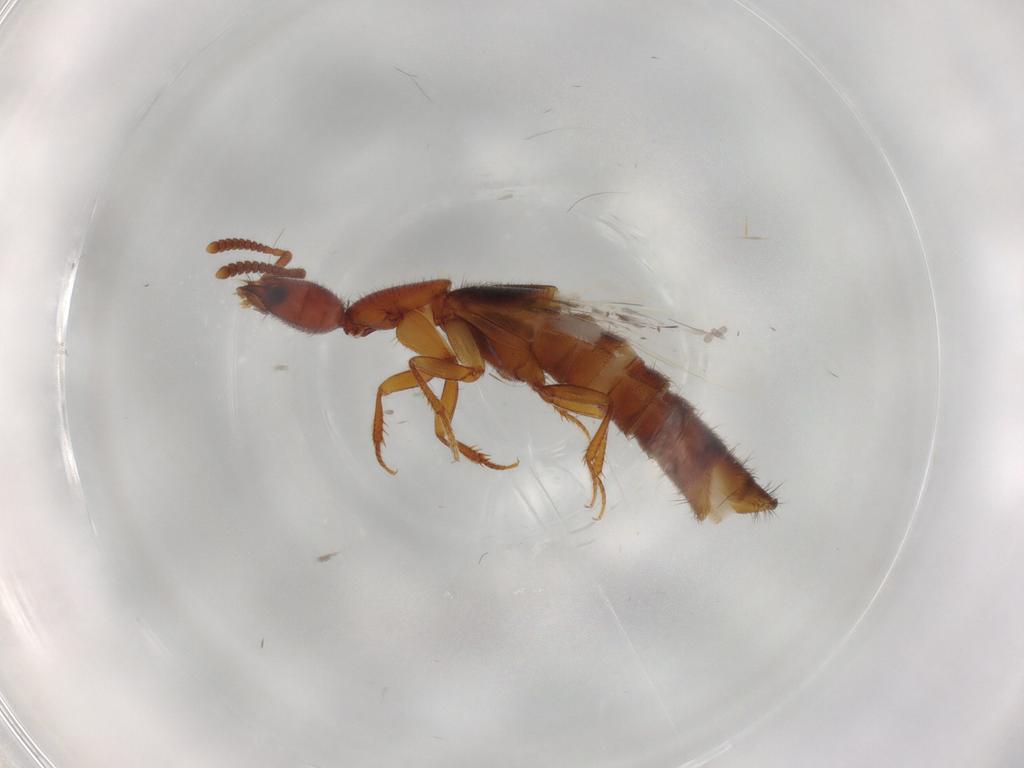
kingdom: Animalia
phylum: Arthropoda
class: Insecta
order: Coleoptera
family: Staphylinidae
